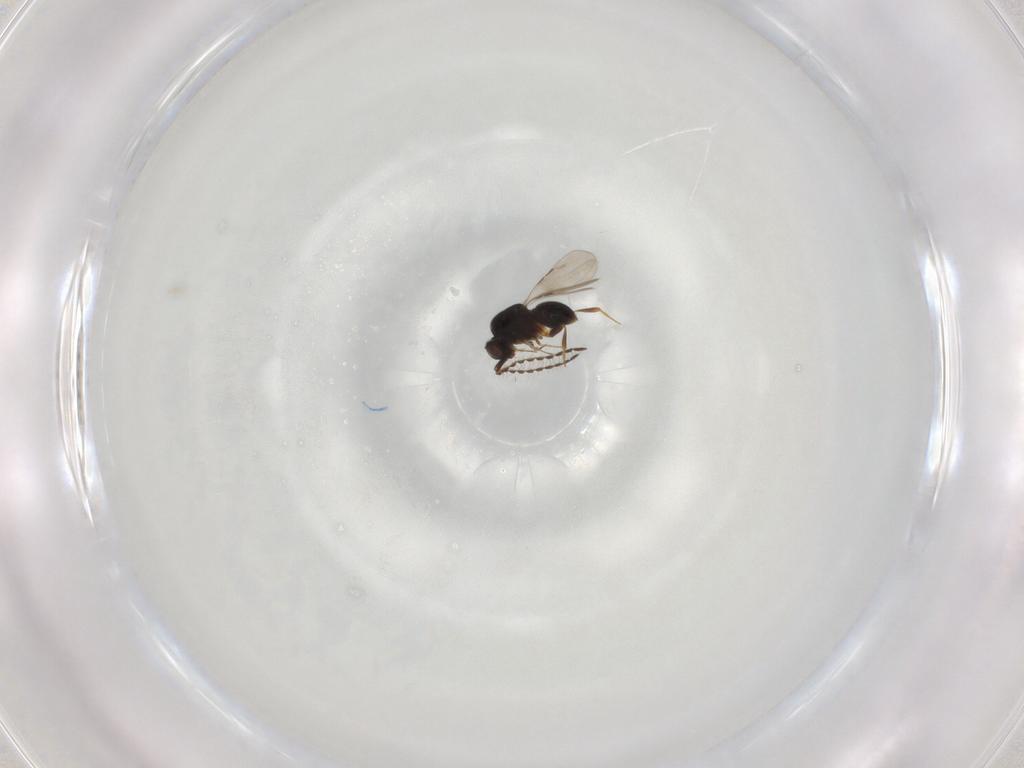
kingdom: Animalia
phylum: Arthropoda
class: Insecta
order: Hymenoptera
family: Ceraphronidae
